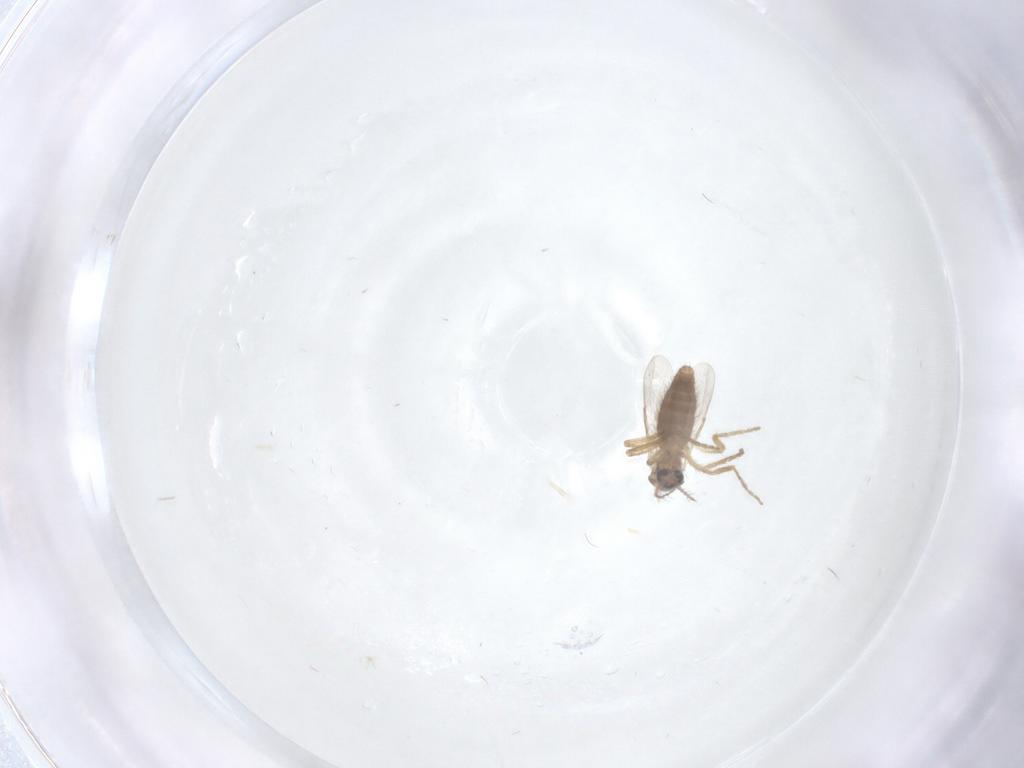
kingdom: Animalia
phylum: Arthropoda
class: Insecta
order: Diptera
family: Ceratopogonidae
